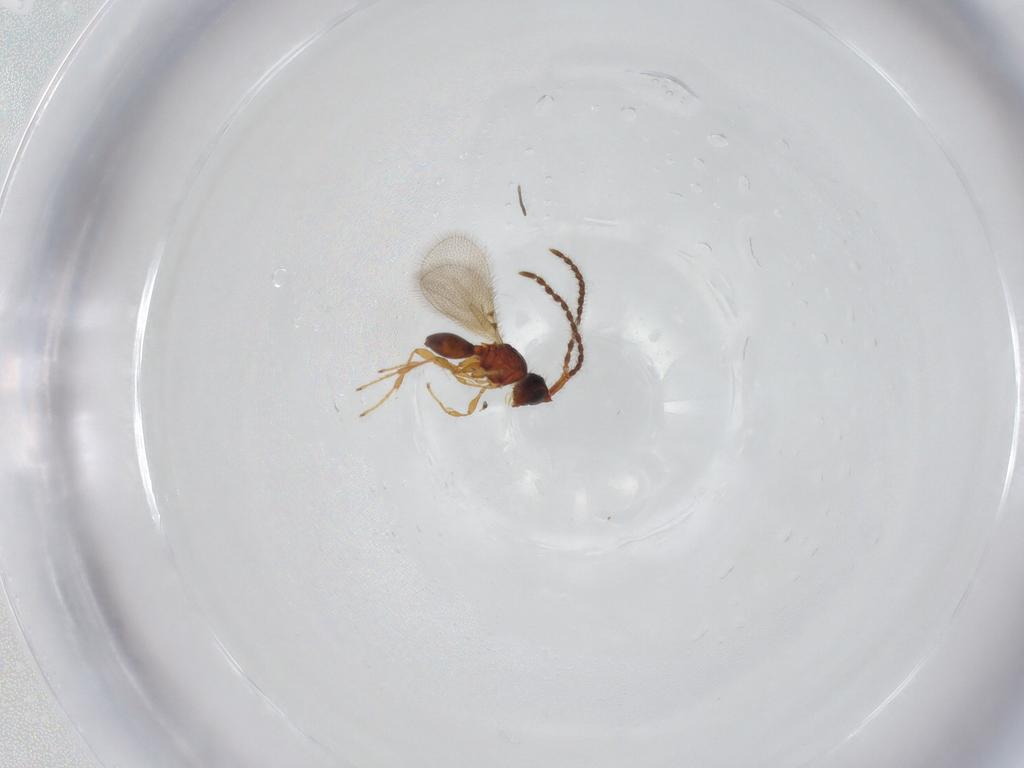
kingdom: Animalia
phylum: Arthropoda
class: Insecta
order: Hymenoptera
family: Diapriidae
